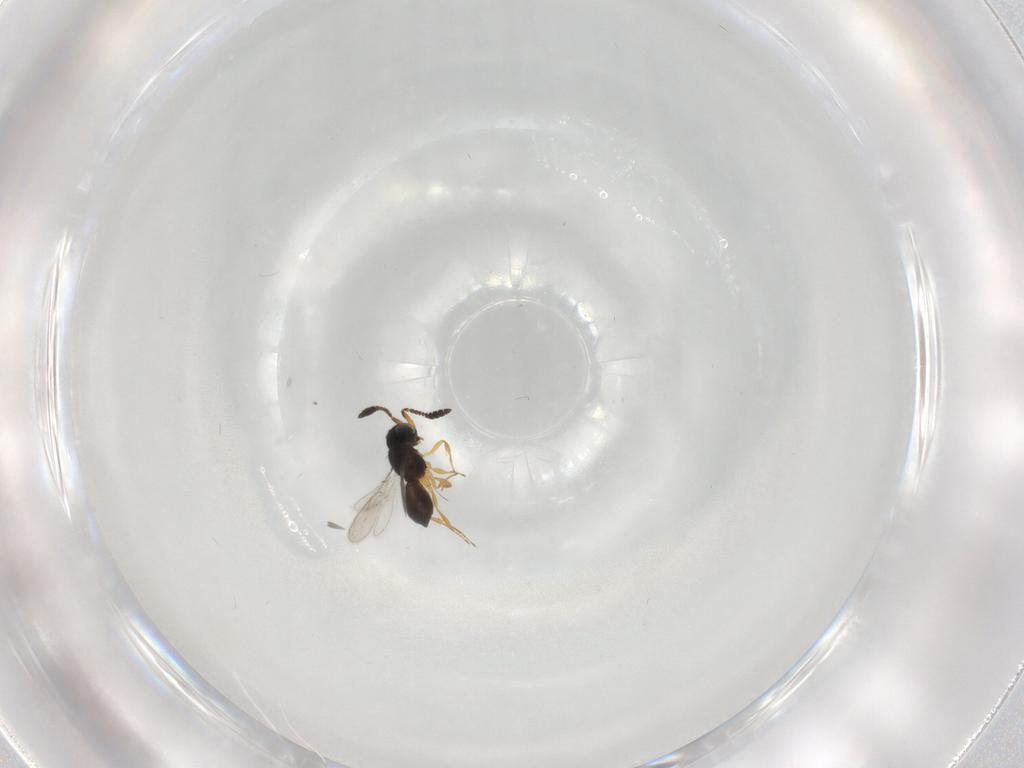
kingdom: Animalia
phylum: Arthropoda
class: Insecta
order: Hymenoptera
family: Scelionidae
